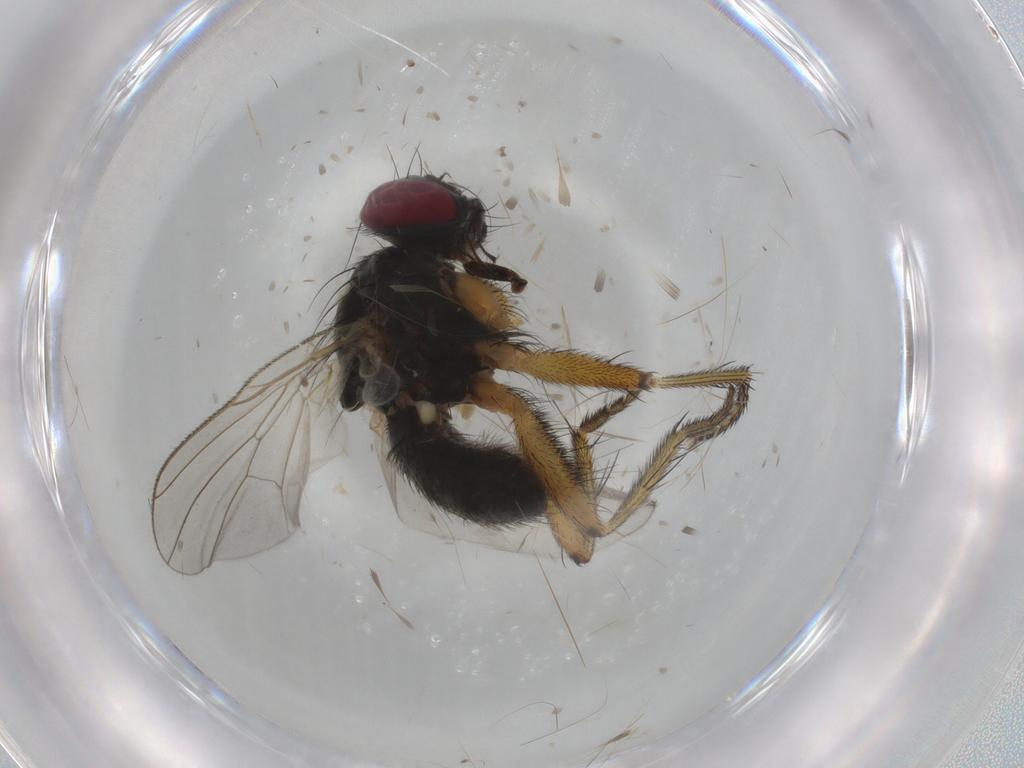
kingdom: Animalia
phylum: Arthropoda
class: Insecta
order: Diptera
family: Muscidae
